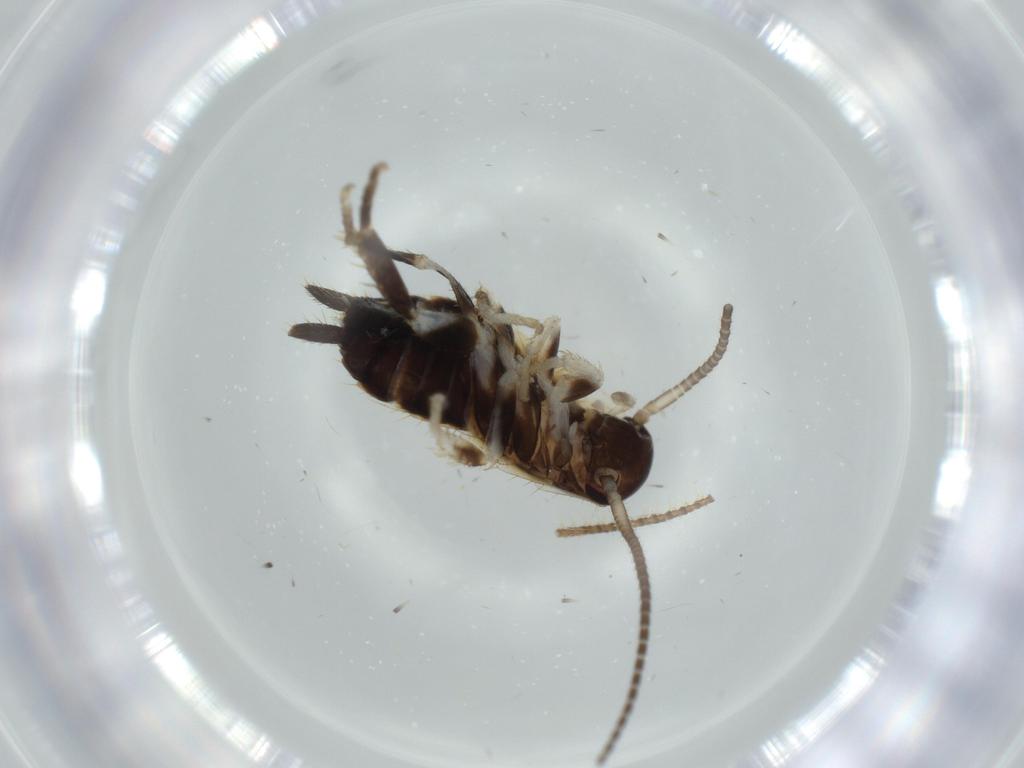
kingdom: Animalia
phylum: Arthropoda
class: Insecta
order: Blattodea
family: Ectobiidae
